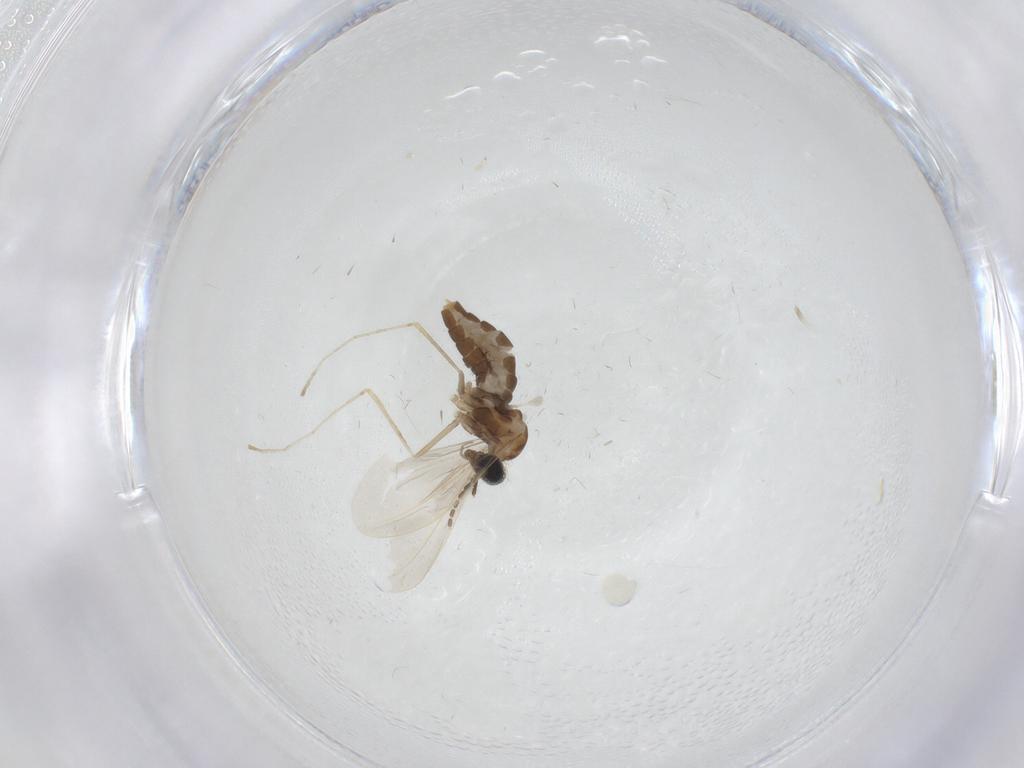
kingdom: Animalia
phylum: Arthropoda
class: Insecta
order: Diptera
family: Cecidomyiidae
